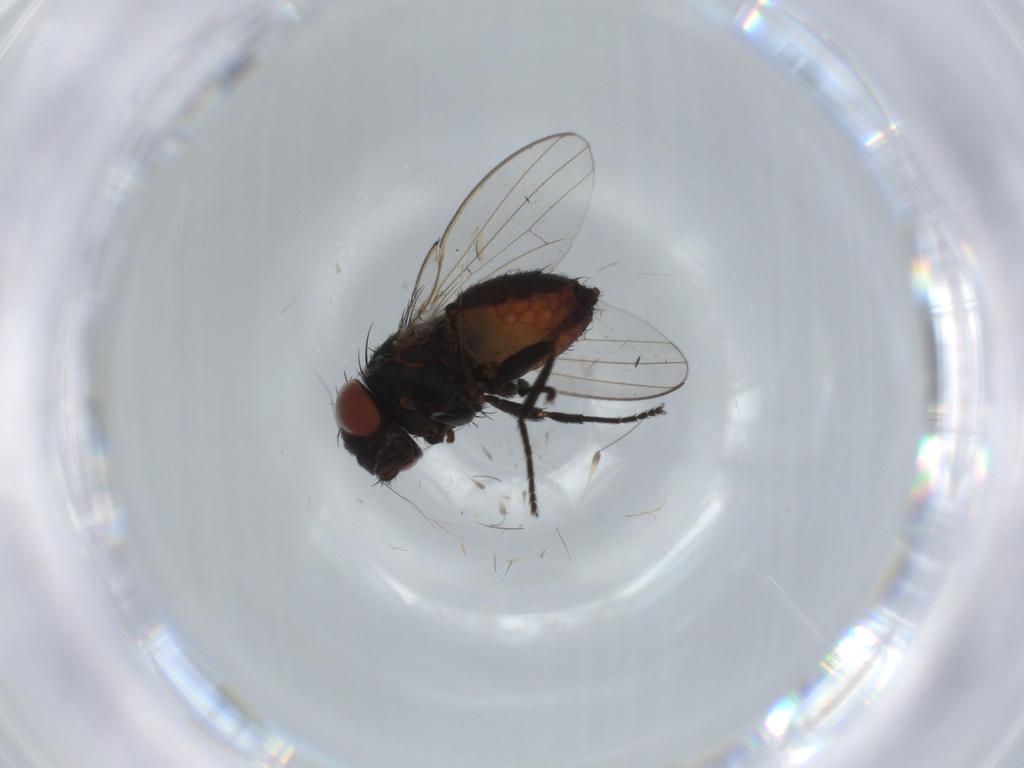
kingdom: Animalia
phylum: Arthropoda
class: Insecta
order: Diptera
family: Milichiidae
